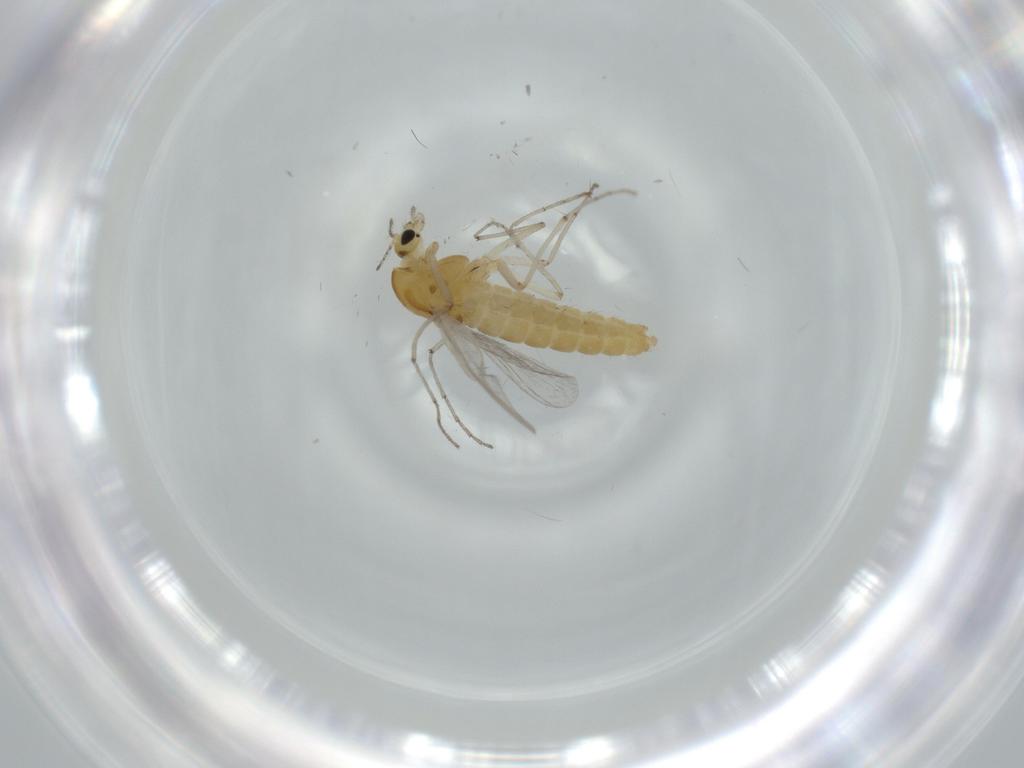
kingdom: Animalia
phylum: Arthropoda
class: Insecta
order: Diptera
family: Chironomidae
